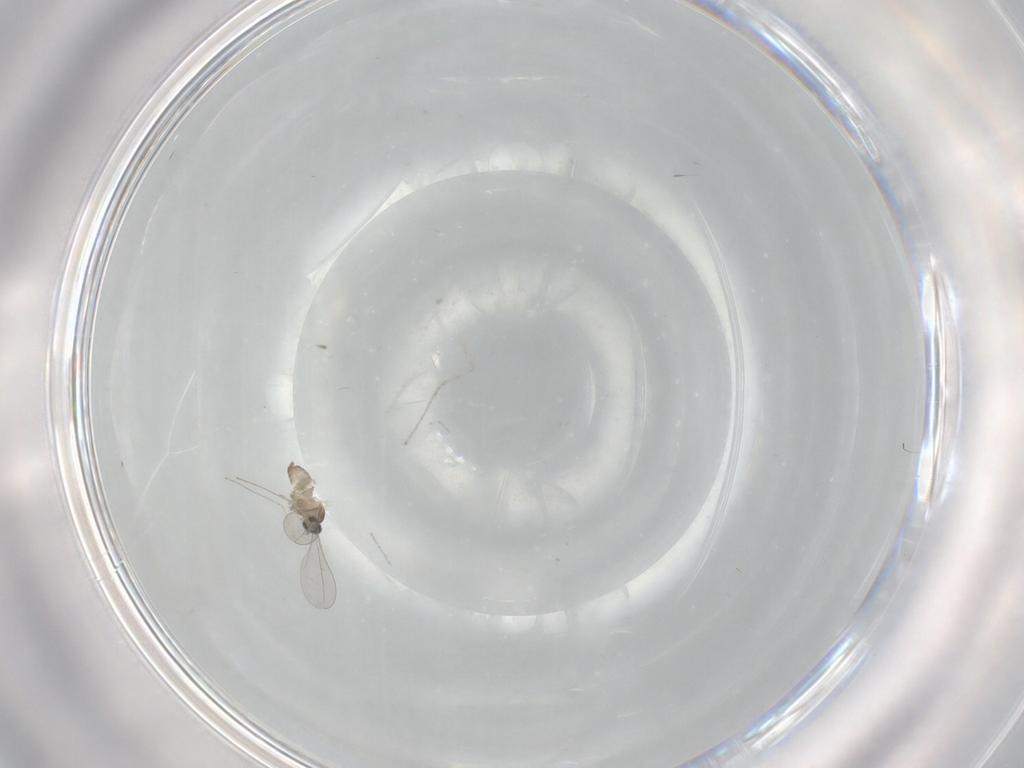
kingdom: Animalia
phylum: Arthropoda
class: Insecta
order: Diptera
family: Cecidomyiidae
